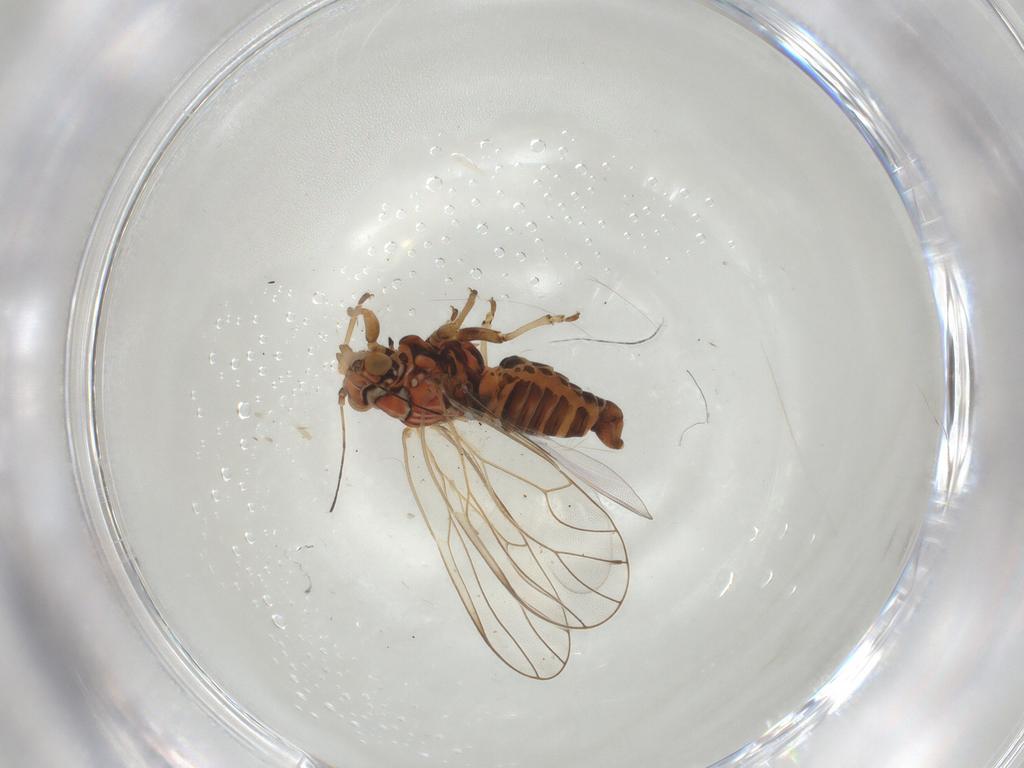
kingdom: Animalia
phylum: Arthropoda
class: Insecta
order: Hemiptera
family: Psyllidae
